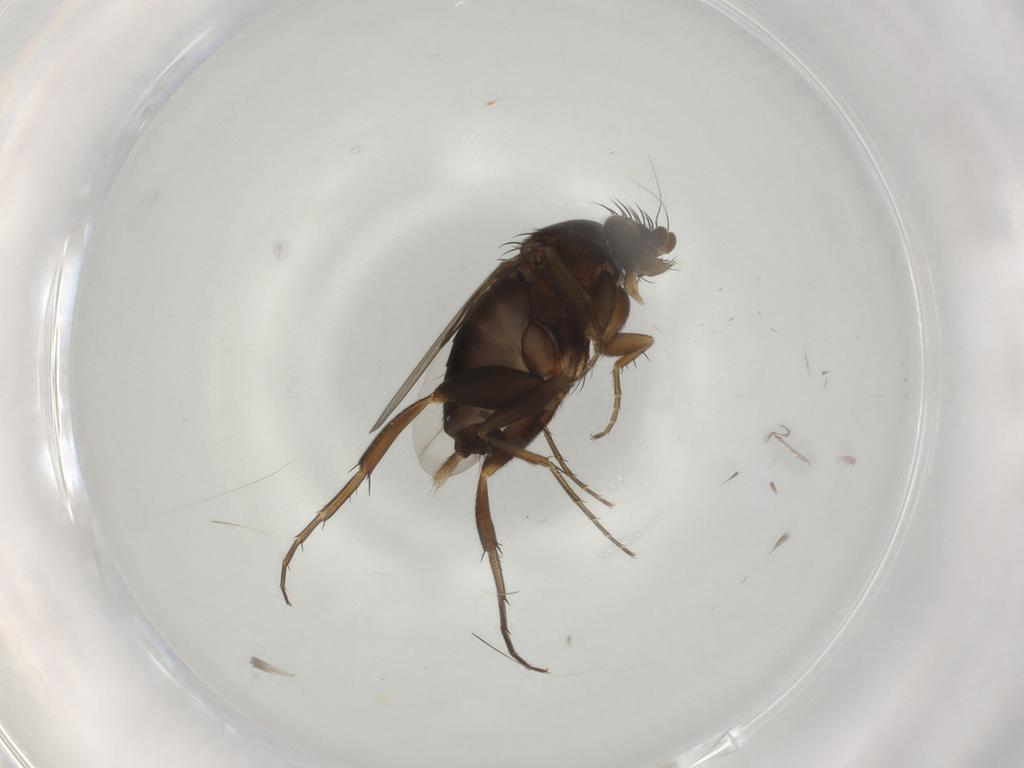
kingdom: Animalia
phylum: Arthropoda
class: Insecta
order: Diptera
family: Phoridae
